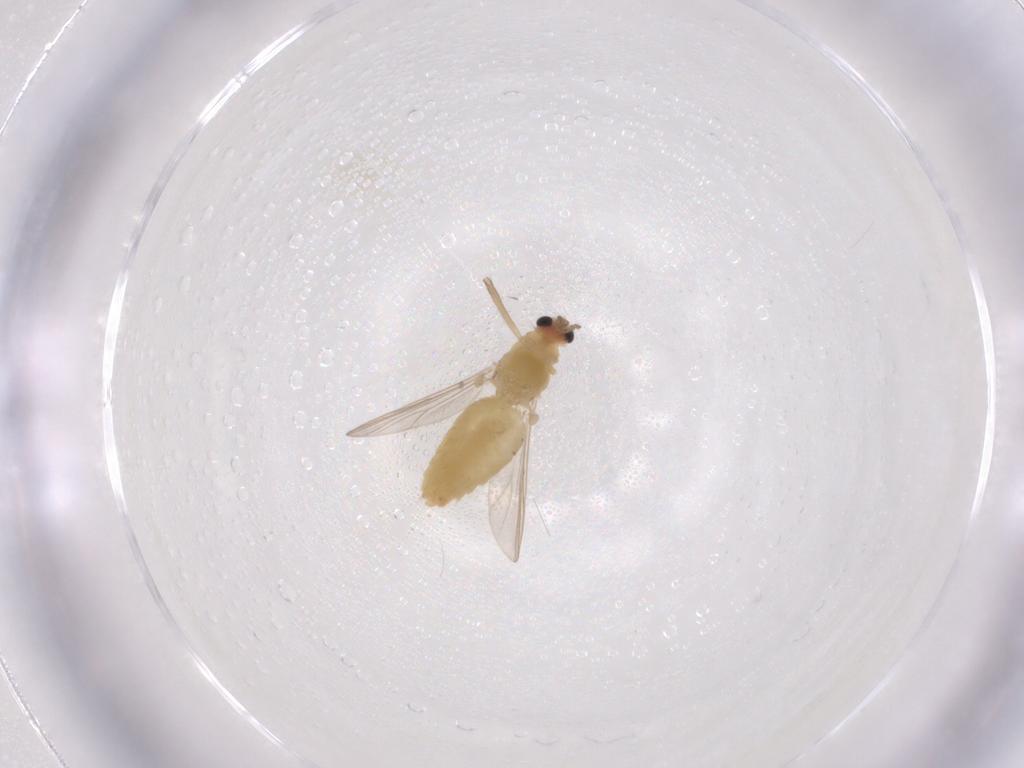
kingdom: Animalia
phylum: Arthropoda
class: Insecta
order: Diptera
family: Chironomidae
